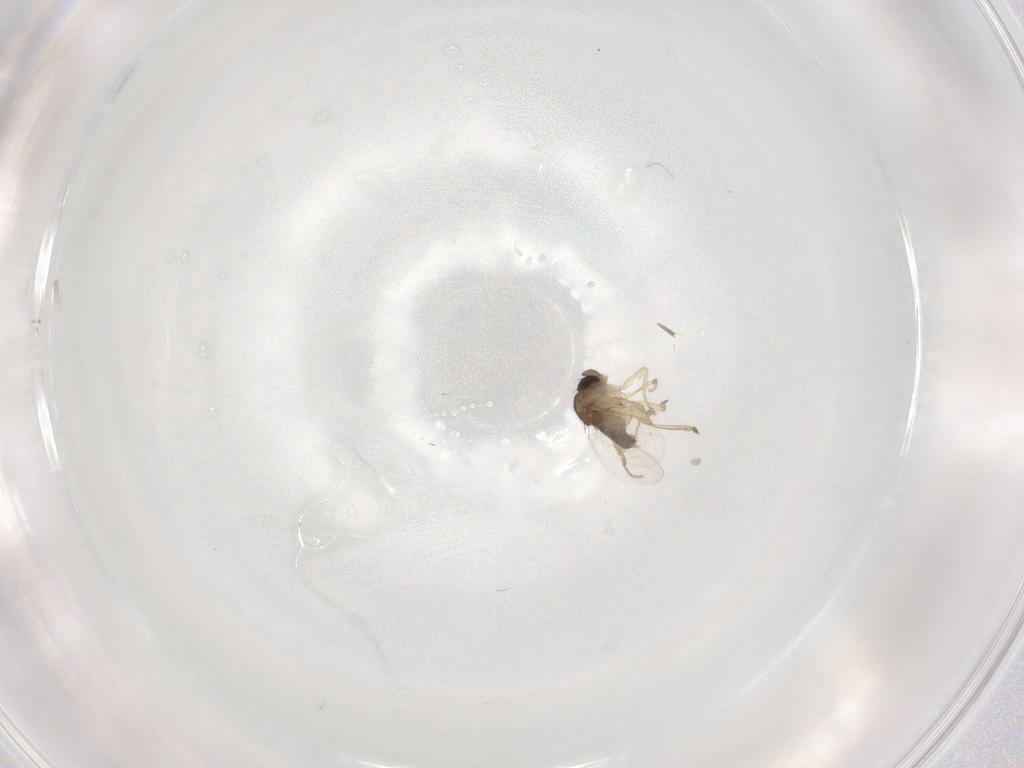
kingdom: Animalia
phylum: Arthropoda
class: Insecta
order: Diptera
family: Phoridae
